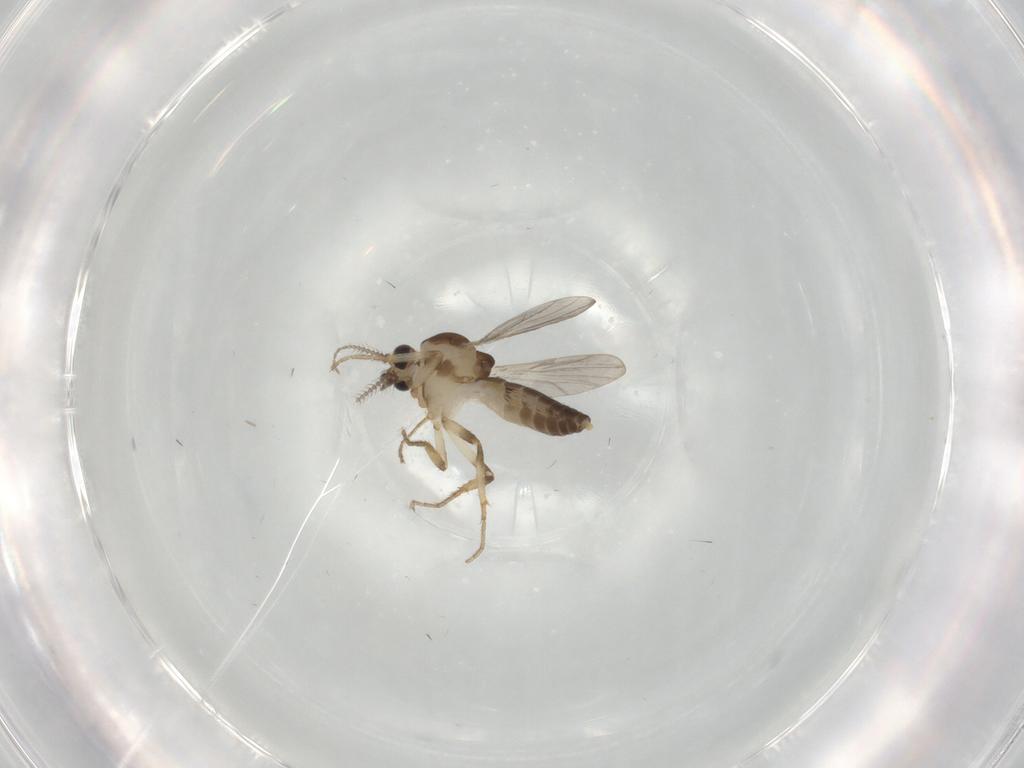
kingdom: Animalia
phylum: Arthropoda
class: Insecta
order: Diptera
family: Ceratopogonidae
